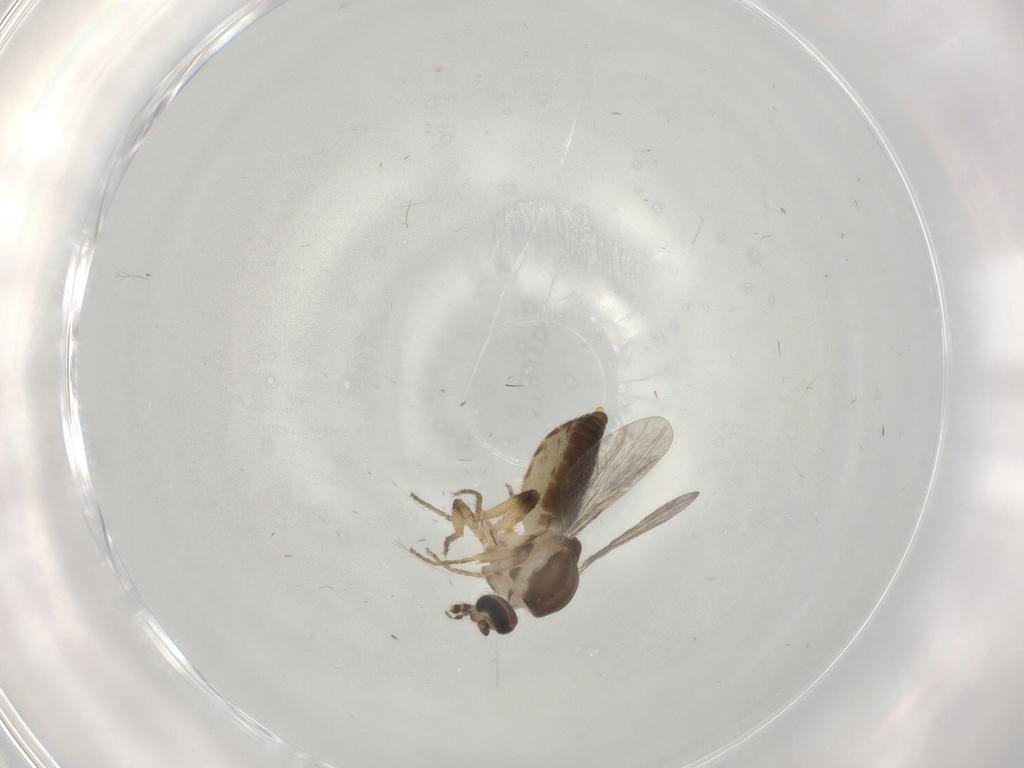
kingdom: Animalia
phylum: Arthropoda
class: Insecta
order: Diptera
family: Ceratopogonidae
